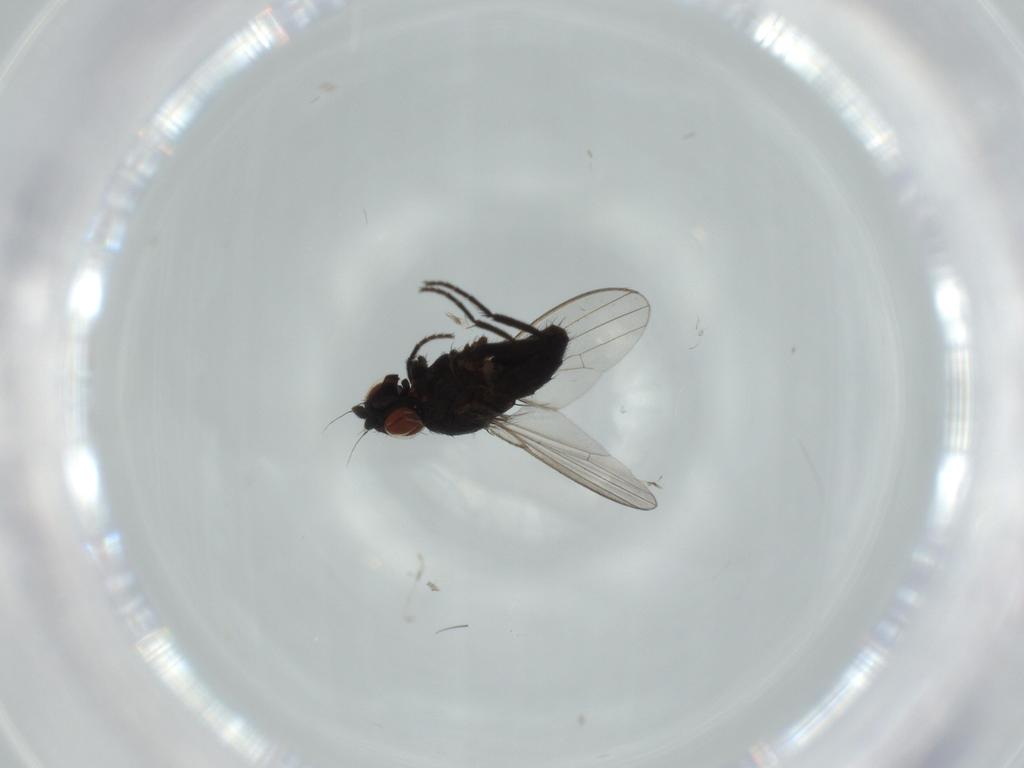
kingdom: Animalia
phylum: Arthropoda
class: Insecta
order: Diptera
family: Milichiidae
